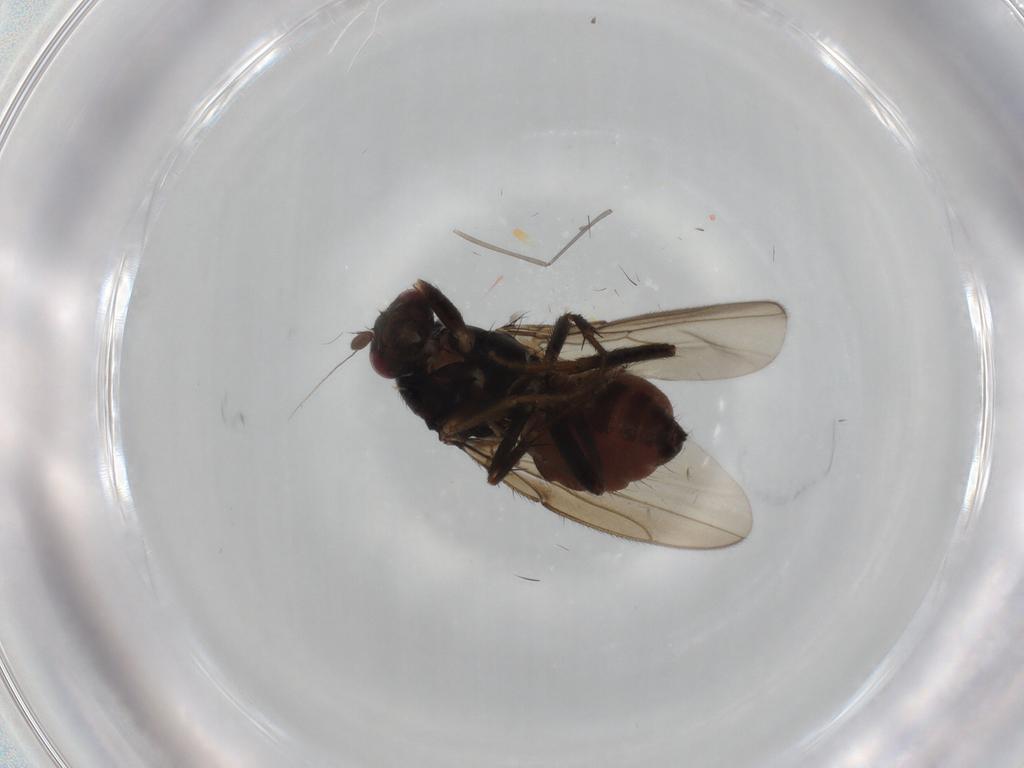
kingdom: Animalia
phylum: Arthropoda
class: Insecta
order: Diptera
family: Sphaeroceridae
